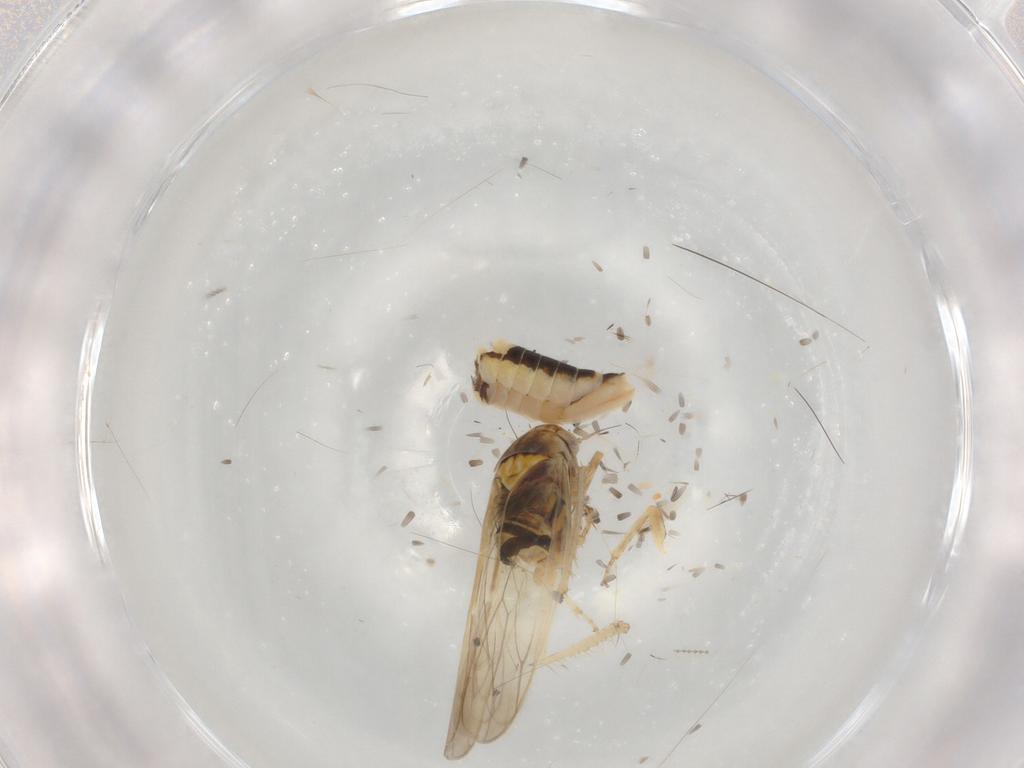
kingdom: Animalia
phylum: Arthropoda
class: Insecta
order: Hemiptera
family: Cicadellidae
